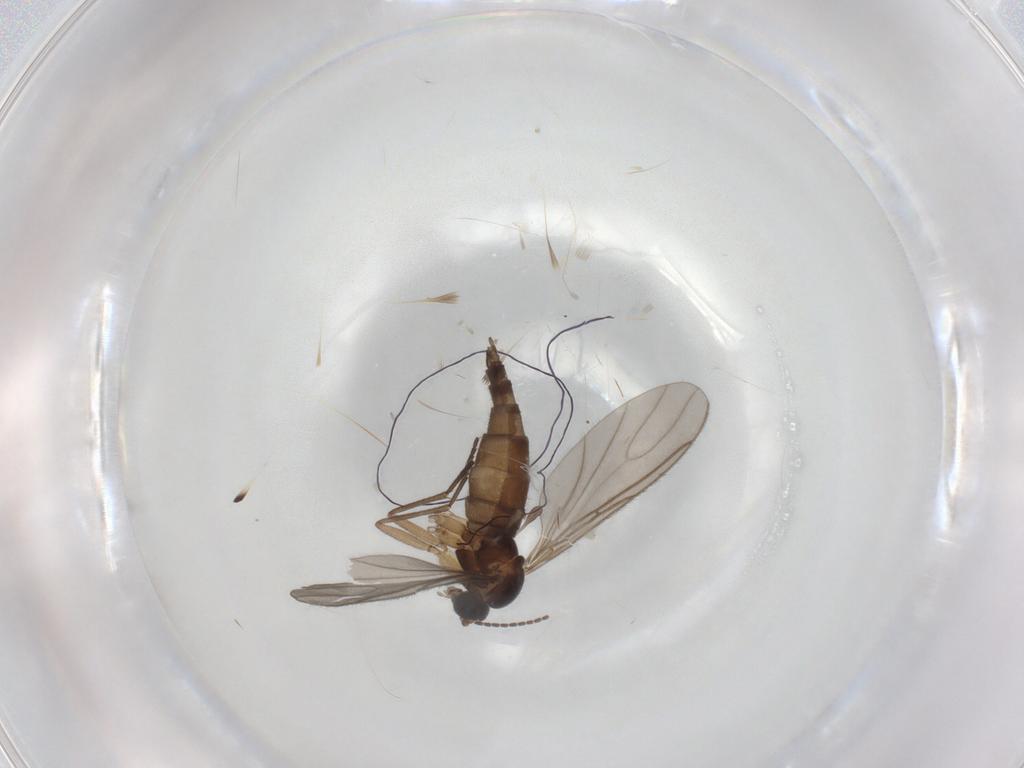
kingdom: Animalia
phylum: Arthropoda
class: Insecta
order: Diptera
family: Sciaridae
